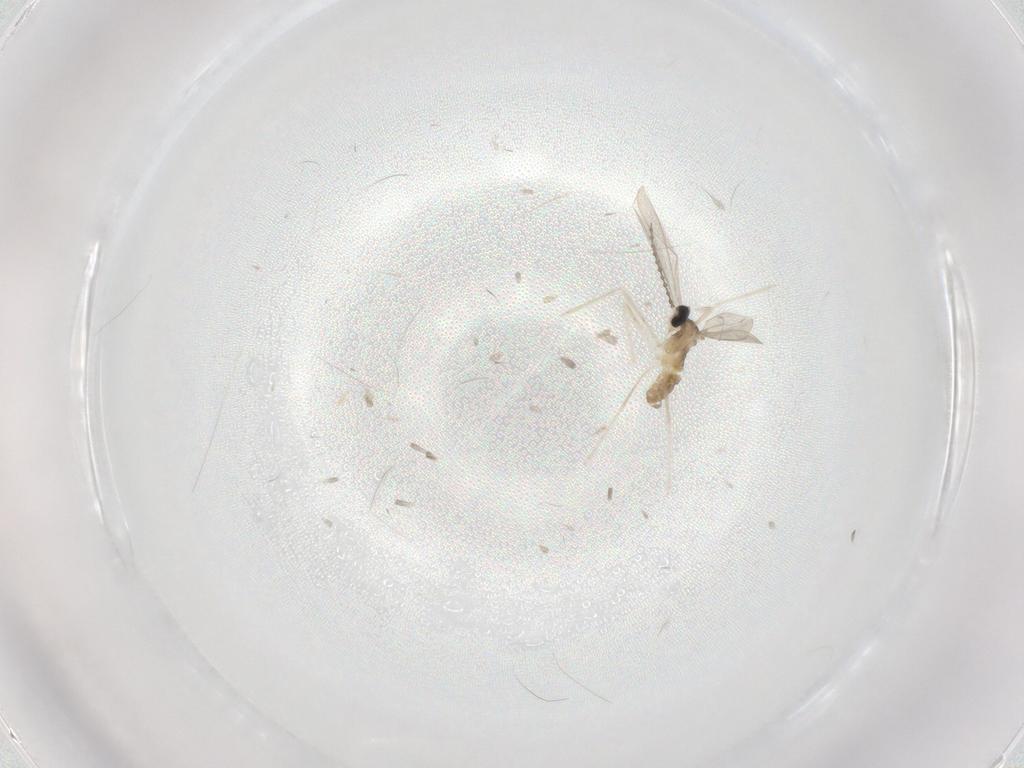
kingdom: Animalia
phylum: Arthropoda
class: Insecta
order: Diptera
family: Cecidomyiidae
